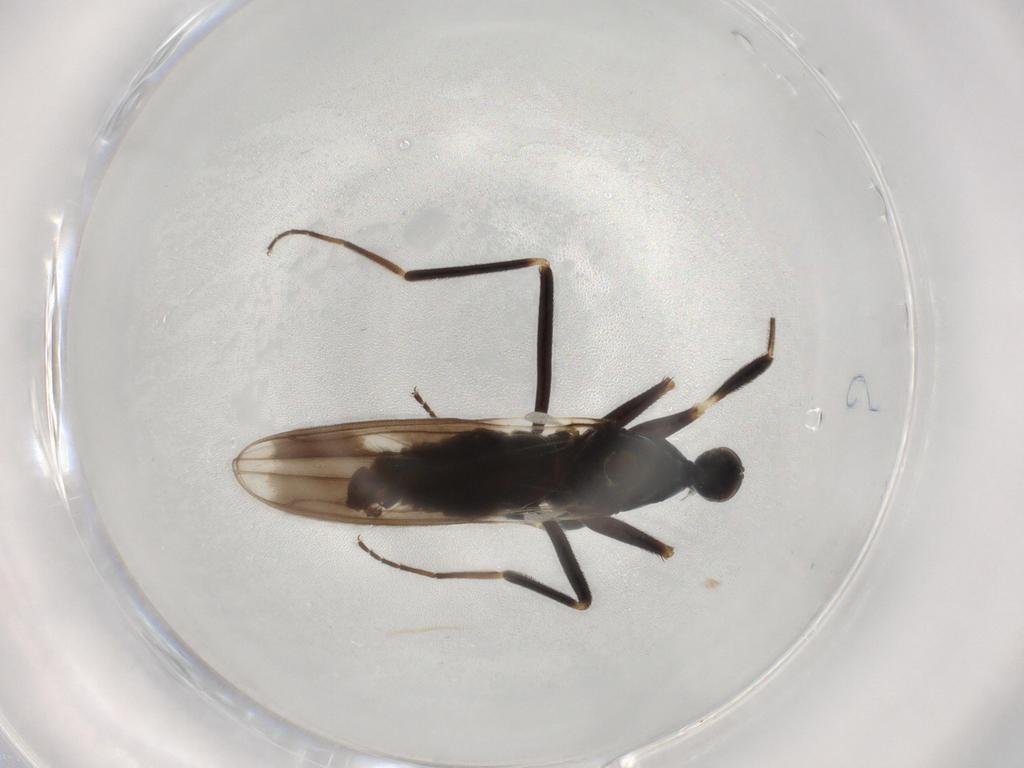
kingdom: Animalia
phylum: Arthropoda
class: Insecta
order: Diptera
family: Hybotidae
